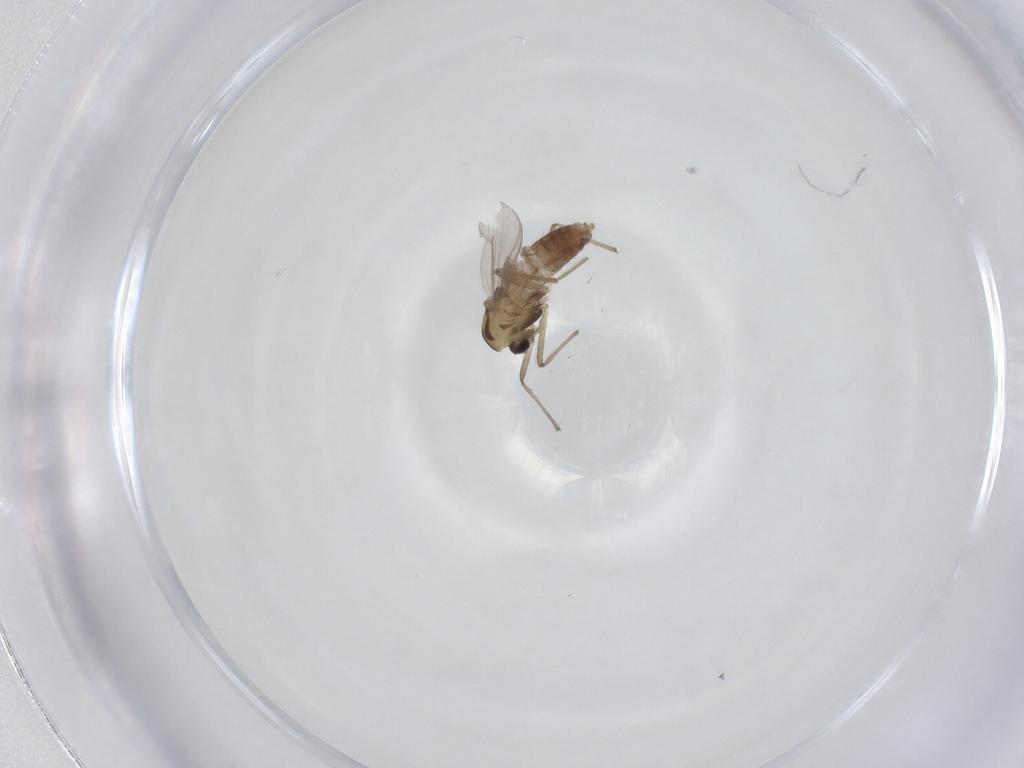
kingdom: Animalia
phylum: Arthropoda
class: Insecta
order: Diptera
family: Chironomidae
